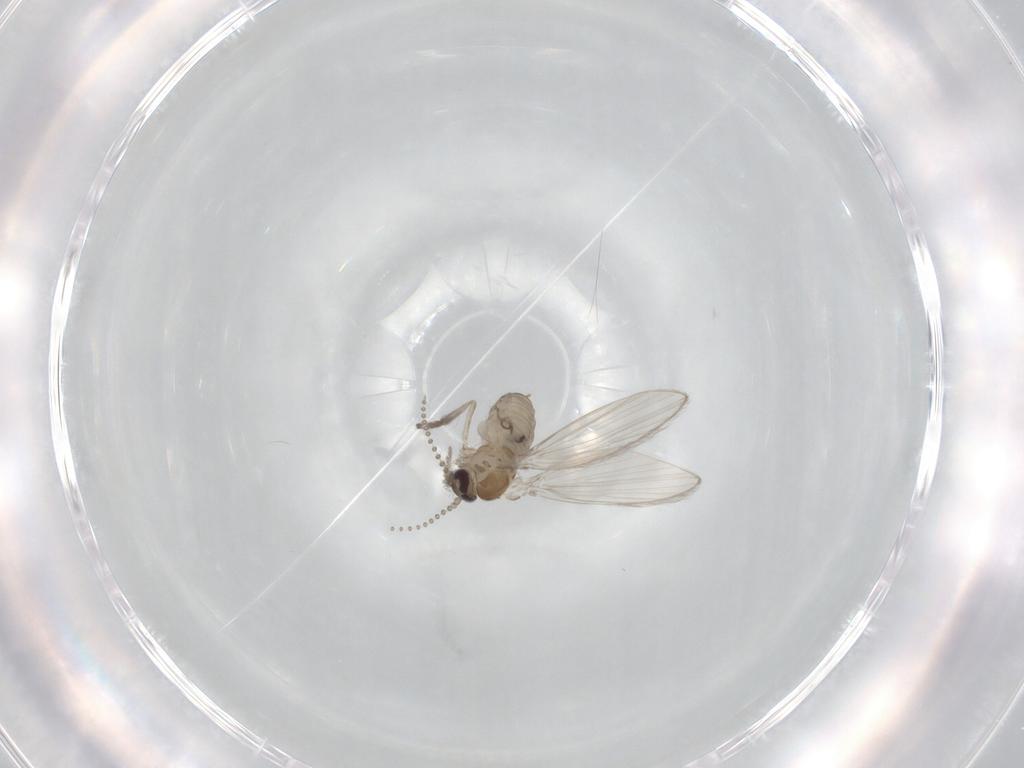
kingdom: Animalia
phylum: Arthropoda
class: Insecta
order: Diptera
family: Psychodidae
